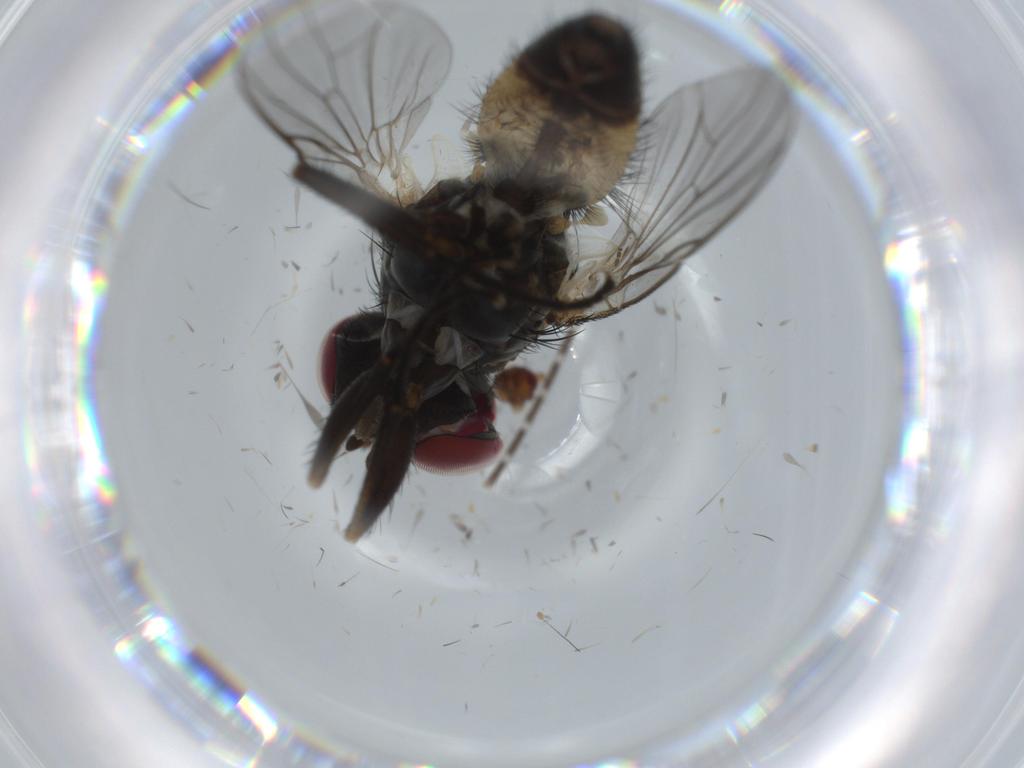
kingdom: Animalia
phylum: Arthropoda
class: Insecta
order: Diptera
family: Fannia
